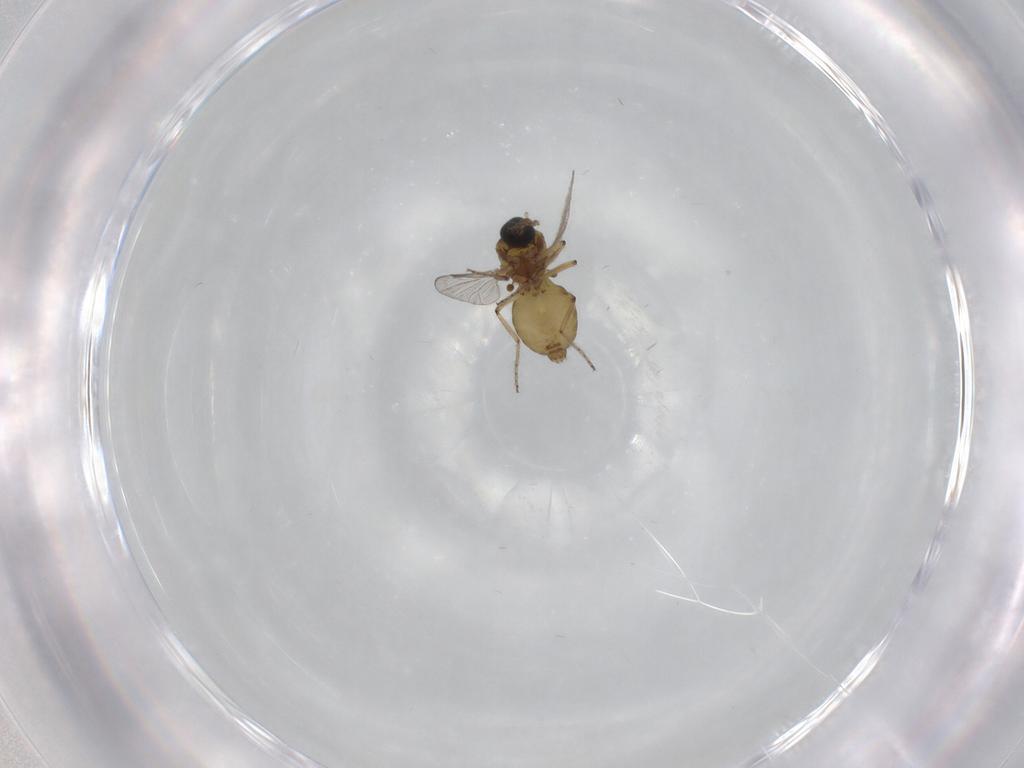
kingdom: Animalia
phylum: Arthropoda
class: Insecta
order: Diptera
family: Ceratopogonidae
